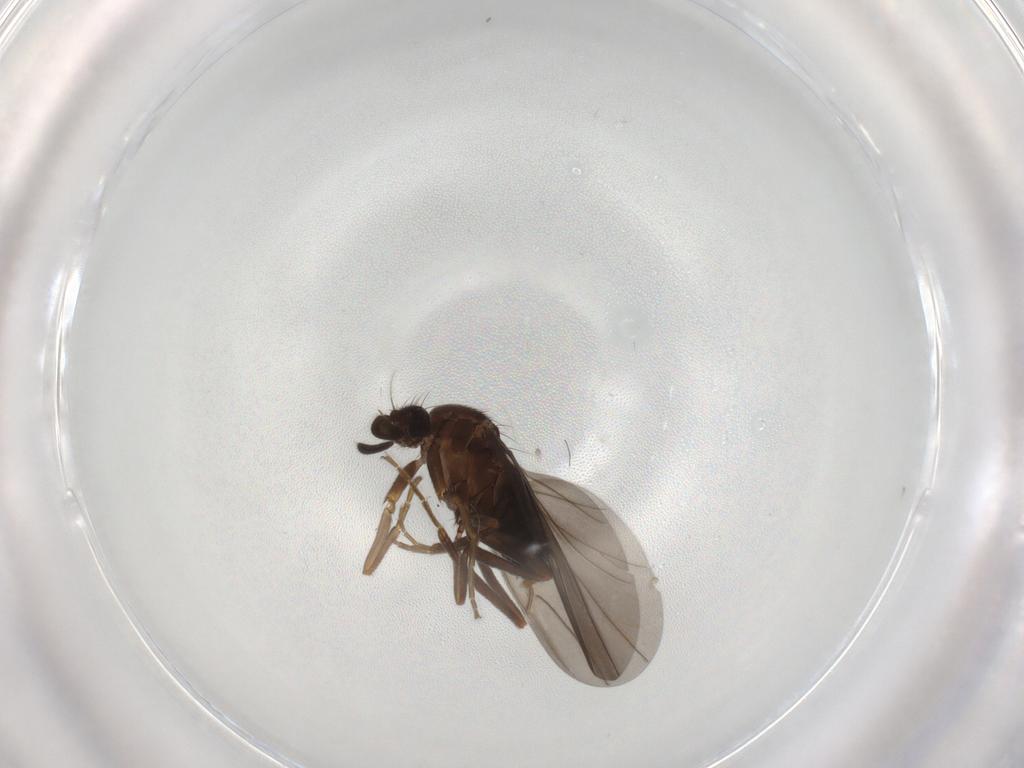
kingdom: Animalia
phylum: Arthropoda
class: Insecta
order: Diptera
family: Phoridae
